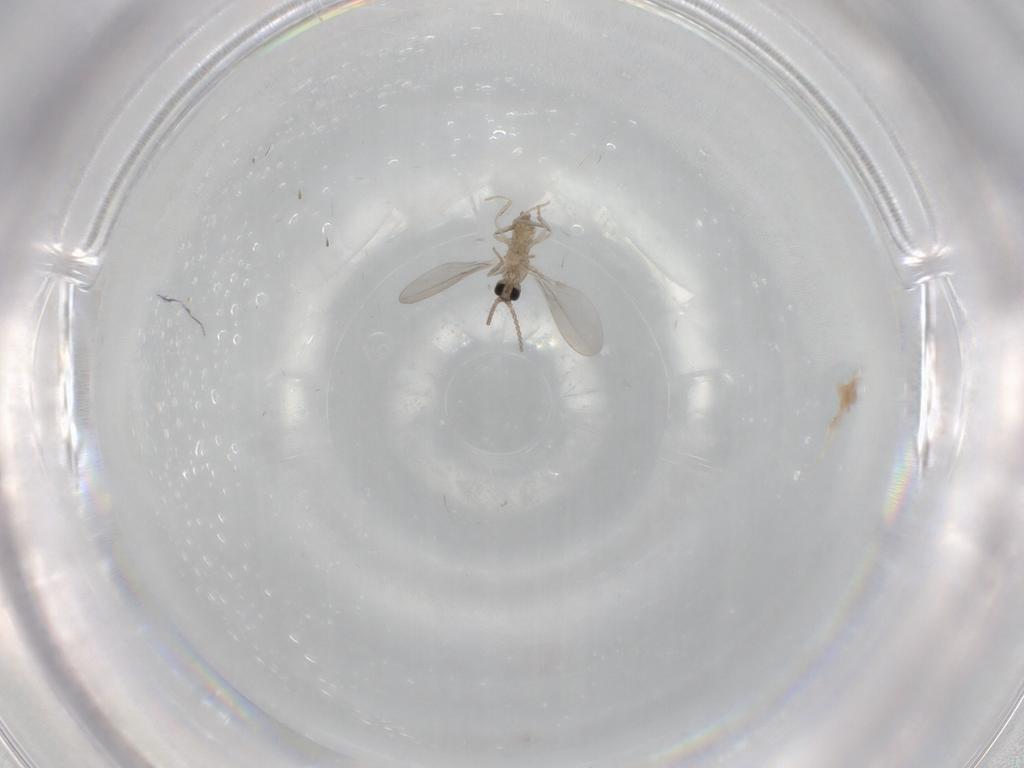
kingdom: Animalia
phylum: Arthropoda
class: Insecta
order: Diptera
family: Cecidomyiidae
